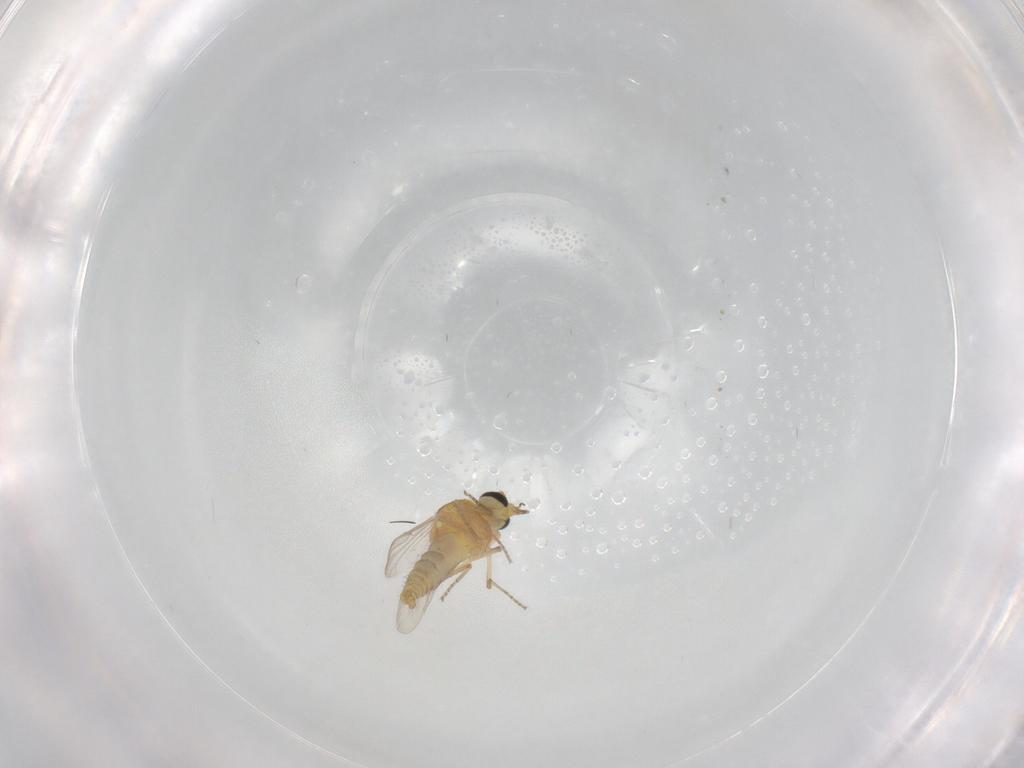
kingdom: Animalia
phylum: Arthropoda
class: Insecta
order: Diptera
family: Ceratopogonidae
